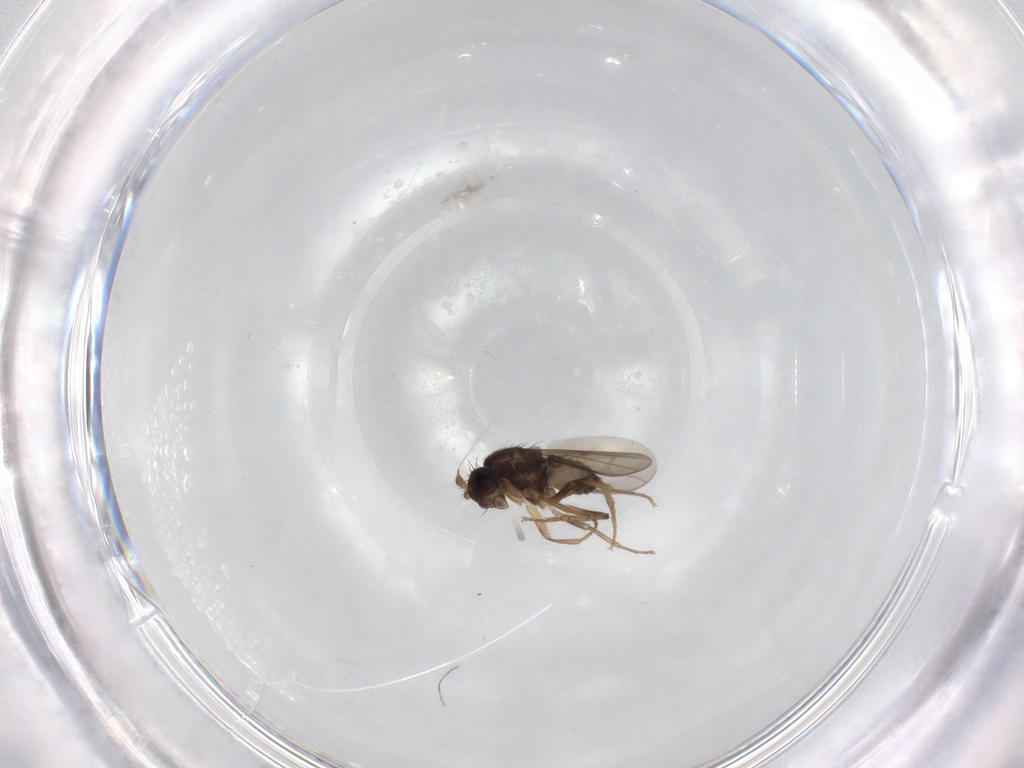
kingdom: Animalia
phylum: Arthropoda
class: Insecta
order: Diptera
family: Sphaeroceridae
